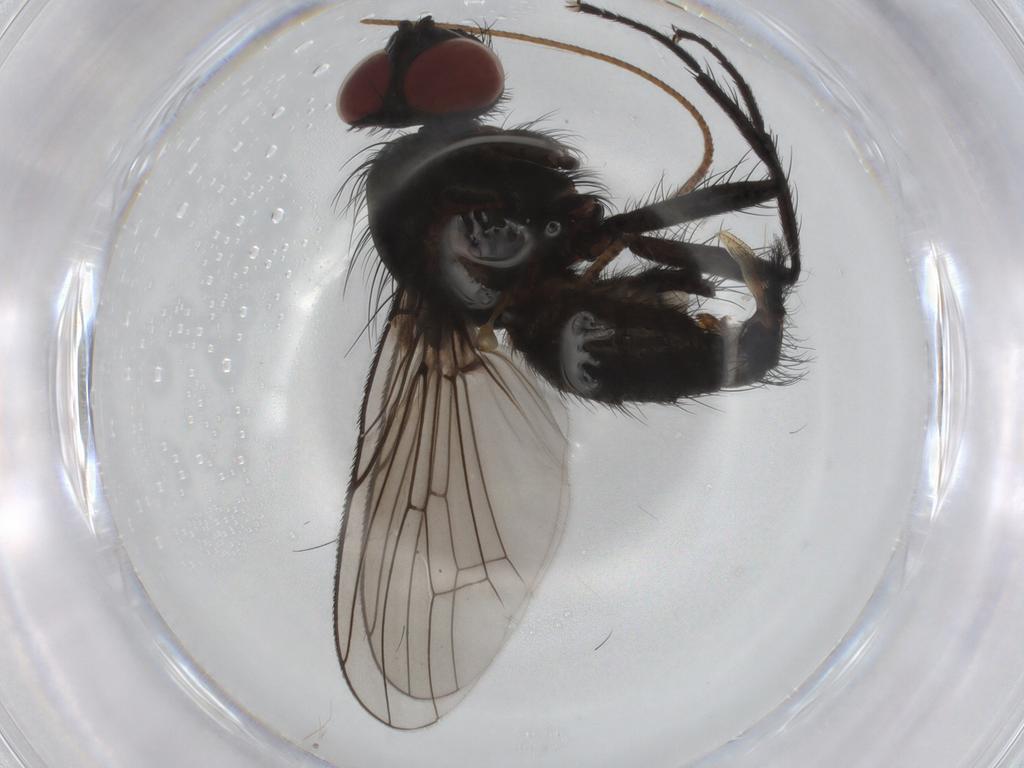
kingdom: Animalia
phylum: Arthropoda
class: Insecta
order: Diptera
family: Anthomyiidae
